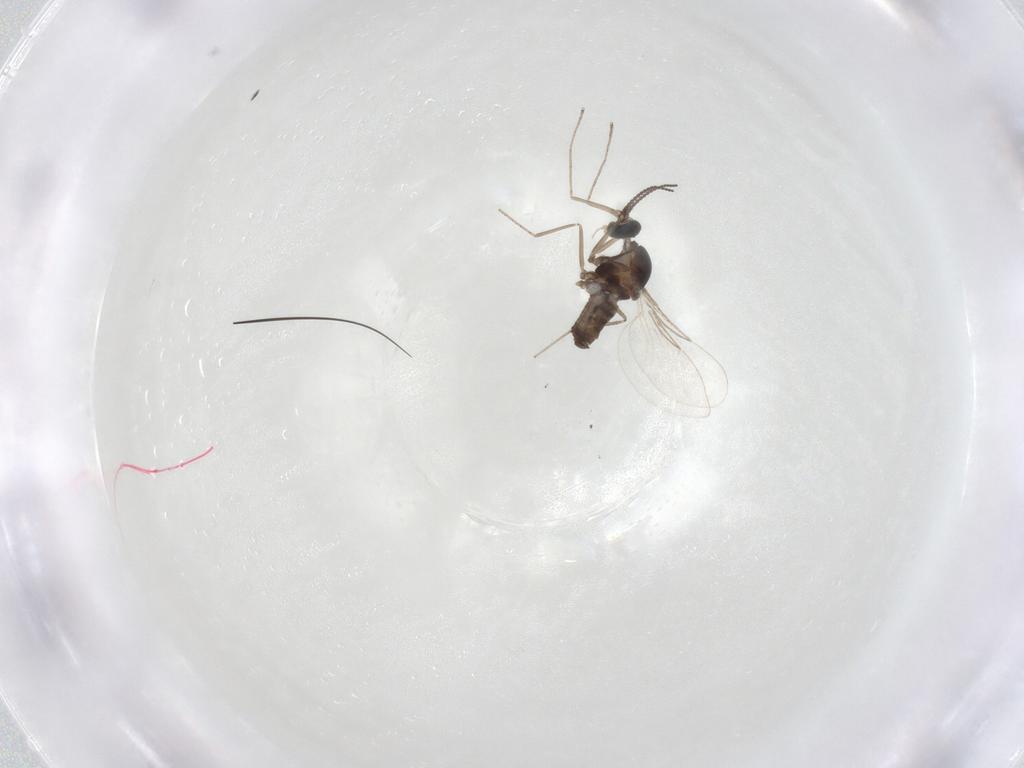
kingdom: Animalia
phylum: Arthropoda
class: Insecta
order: Diptera
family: Cecidomyiidae
